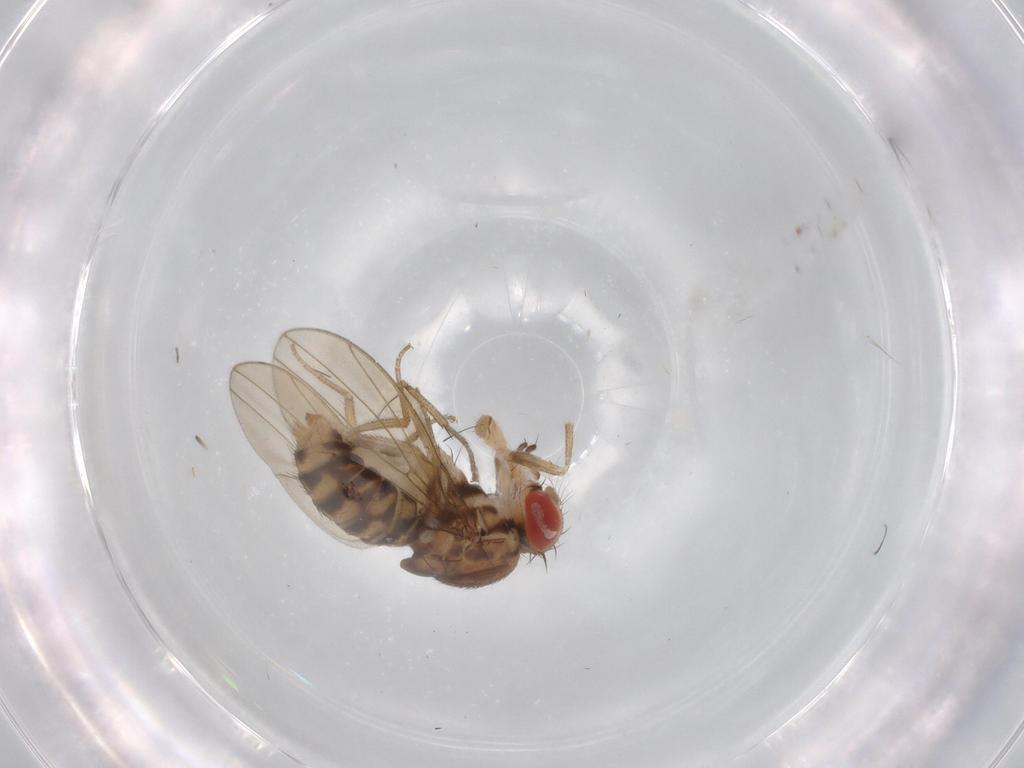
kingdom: Animalia
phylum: Arthropoda
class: Insecta
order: Diptera
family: Drosophilidae
